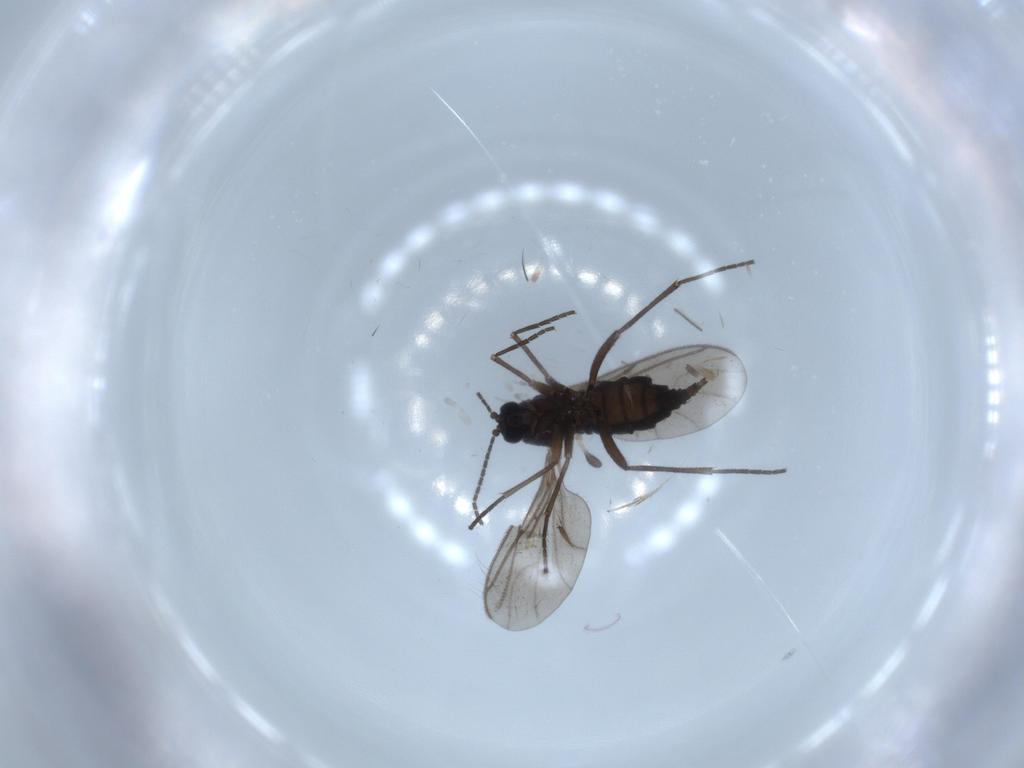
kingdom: Animalia
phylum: Arthropoda
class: Insecta
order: Diptera
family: Sciaridae
